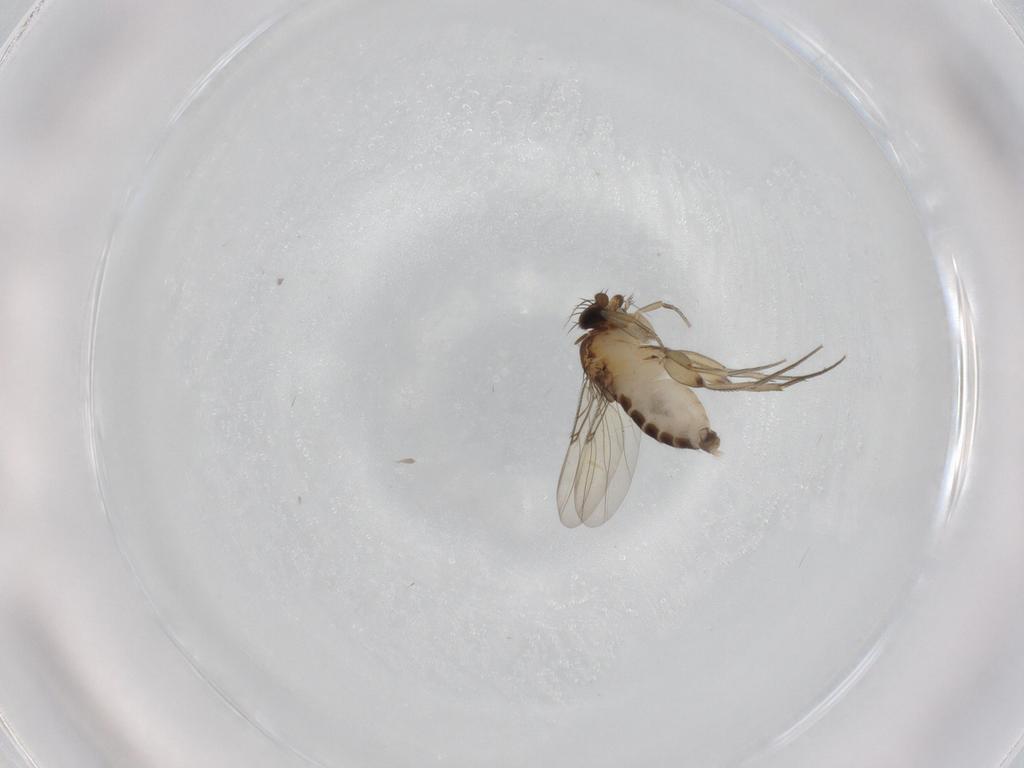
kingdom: Animalia
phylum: Arthropoda
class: Insecta
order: Diptera
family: Phoridae
